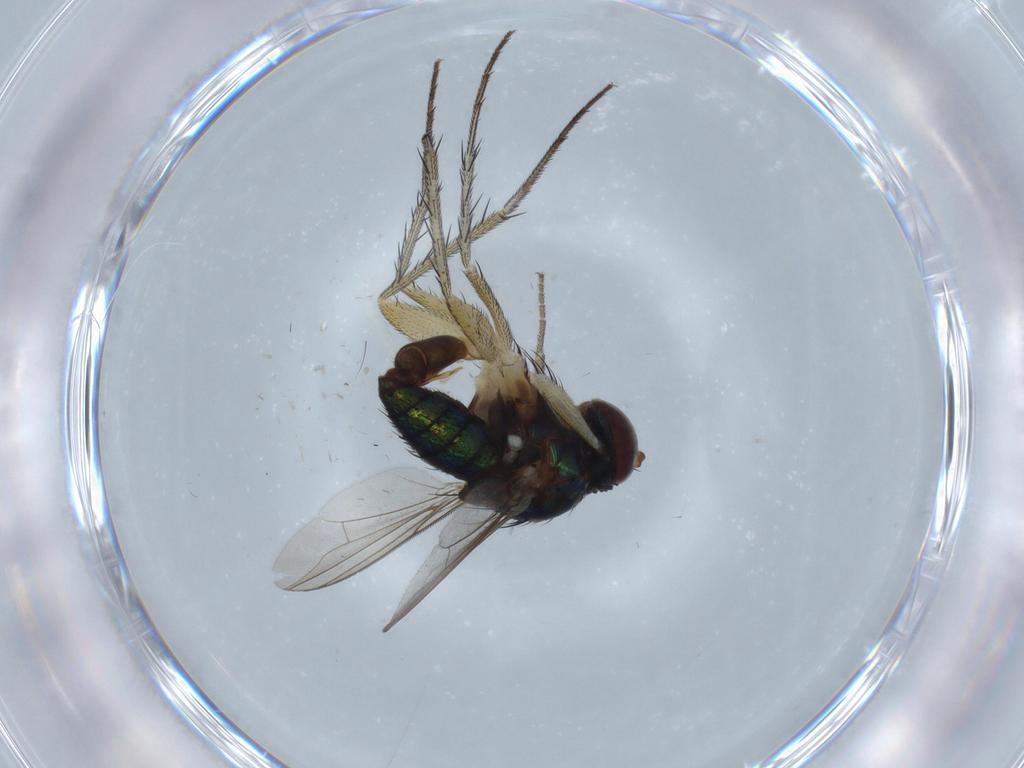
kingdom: Animalia
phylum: Arthropoda
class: Insecta
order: Diptera
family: Dolichopodidae
